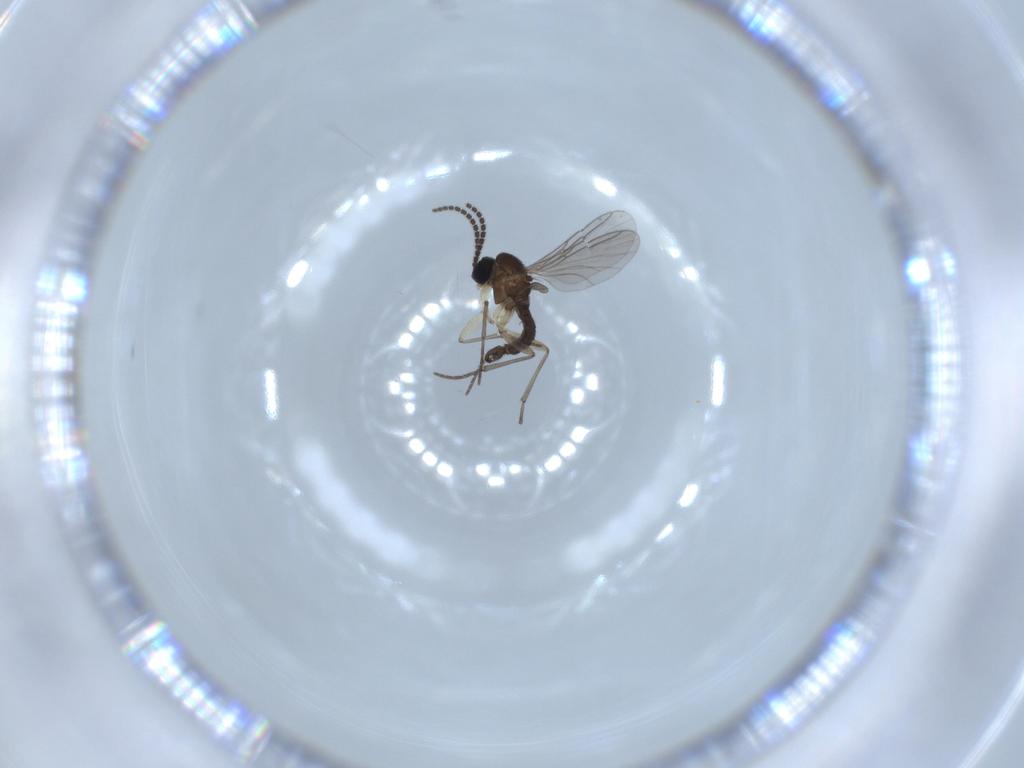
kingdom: Animalia
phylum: Arthropoda
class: Insecta
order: Diptera
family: Sciaridae
